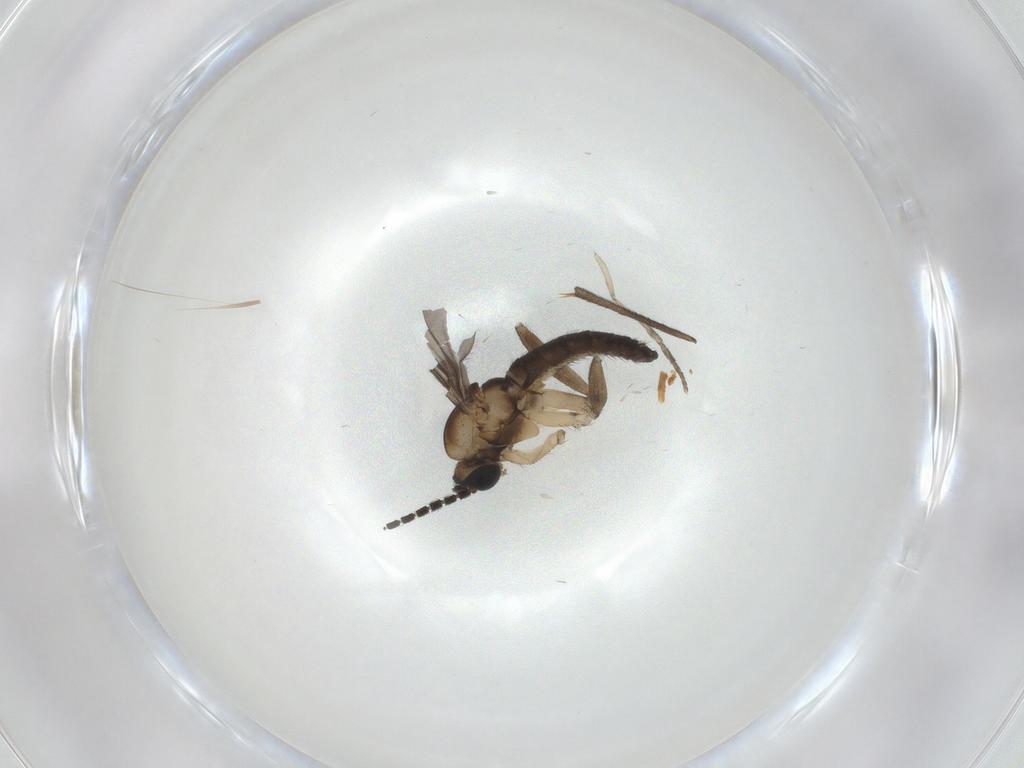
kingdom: Animalia
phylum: Arthropoda
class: Insecta
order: Diptera
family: Sciaridae
